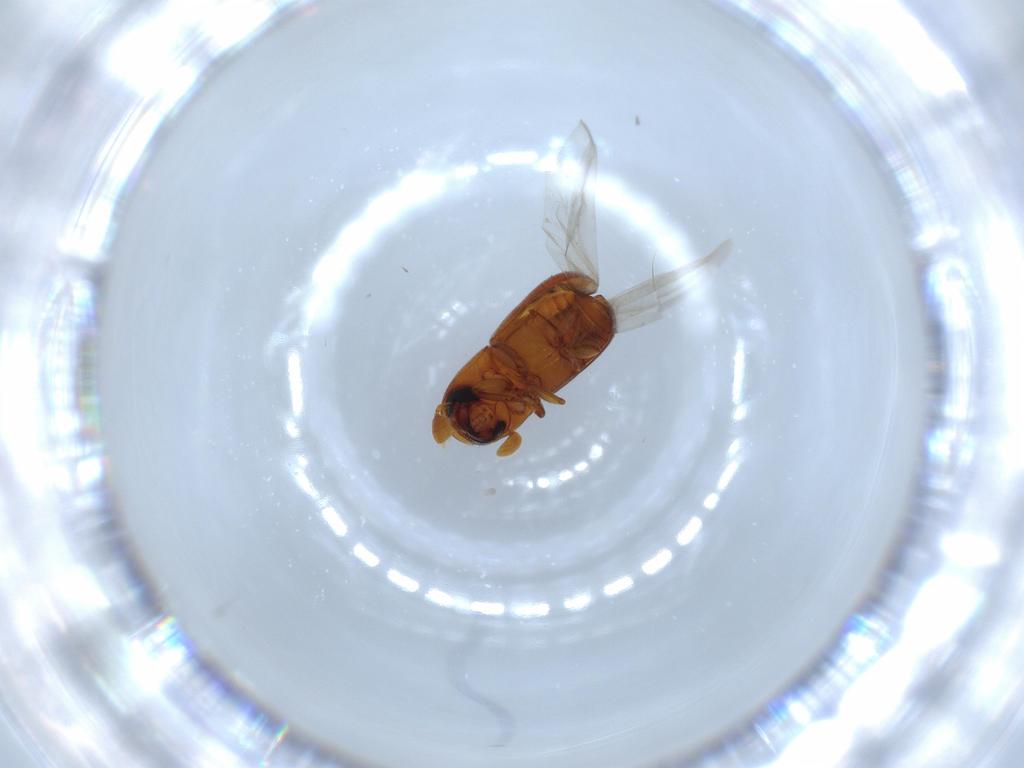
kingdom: Animalia
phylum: Arthropoda
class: Insecta
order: Coleoptera
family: Curculionidae
